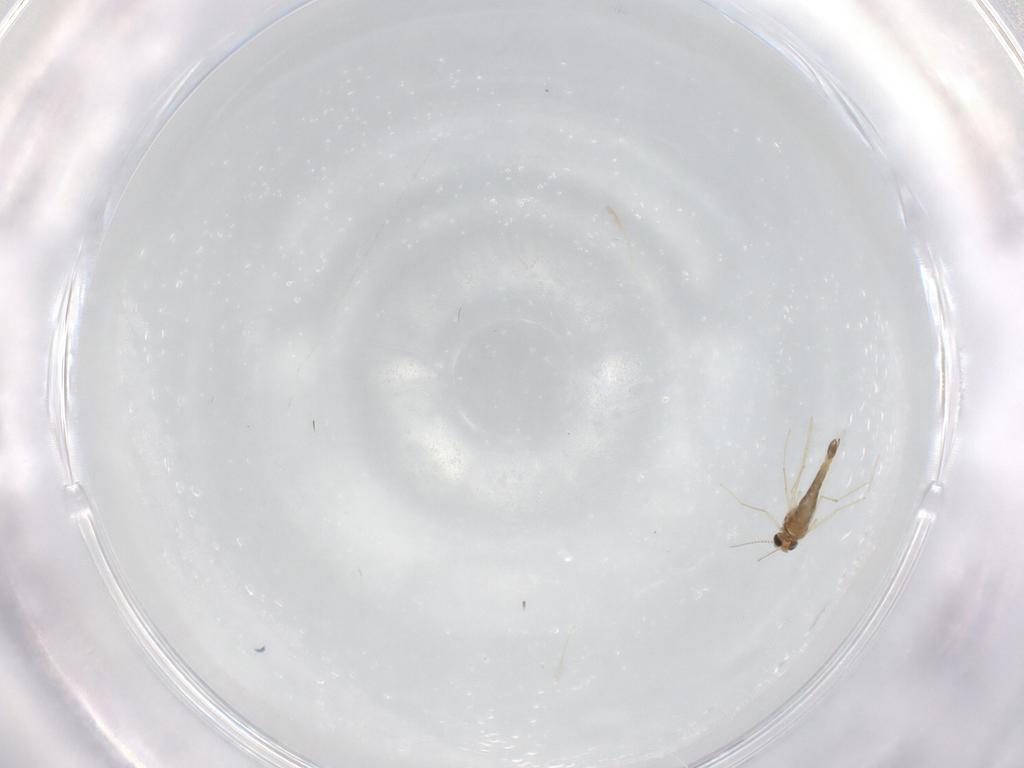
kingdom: Animalia
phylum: Arthropoda
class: Insecta
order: Diptera
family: Chironomidae
